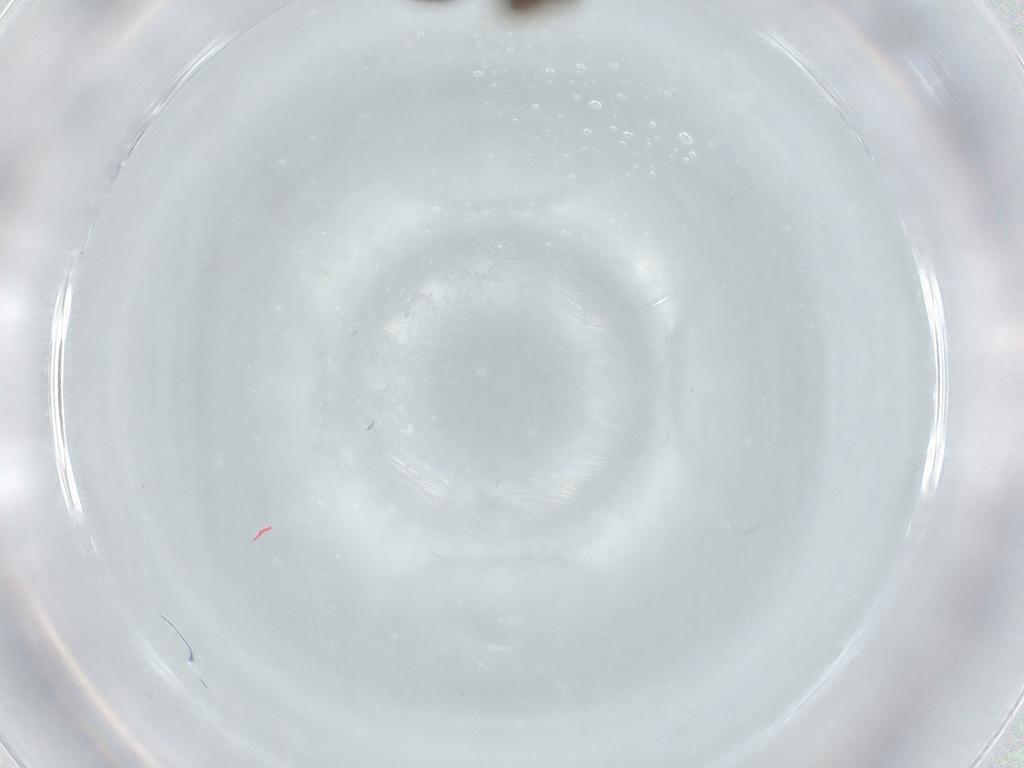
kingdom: Animalia
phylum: Arthropoda
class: Insecta
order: Diptera
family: Chironomidae
